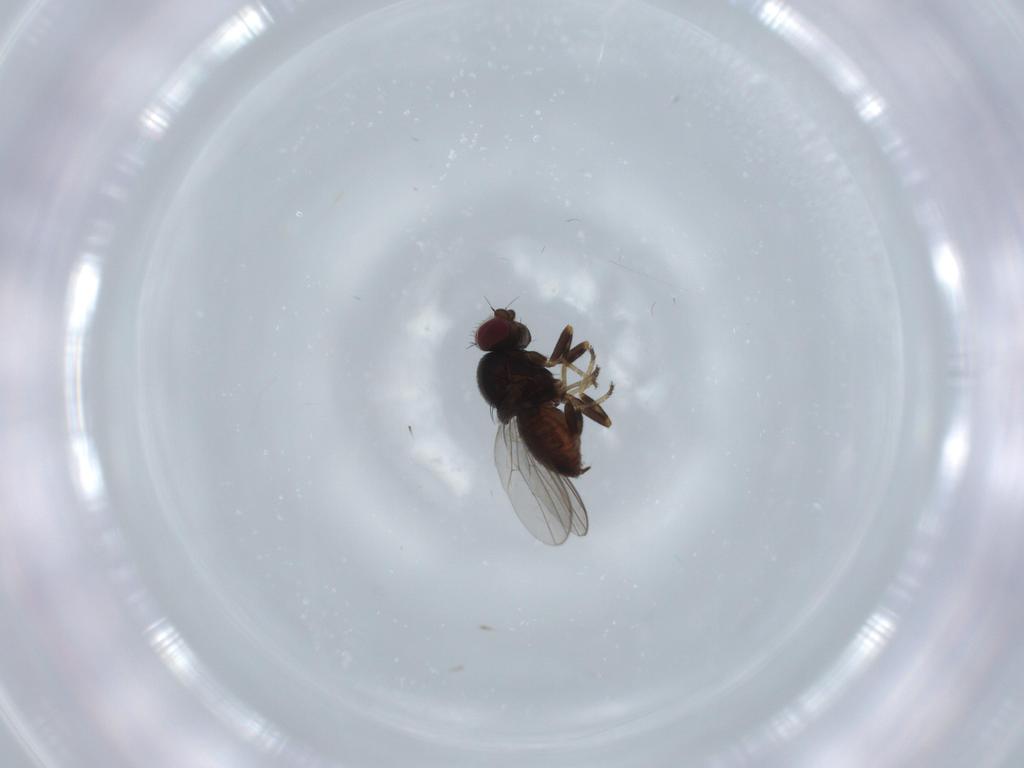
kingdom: Animalia
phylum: Arthropoda
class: Insecta
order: Diptera
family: Chloropidae
